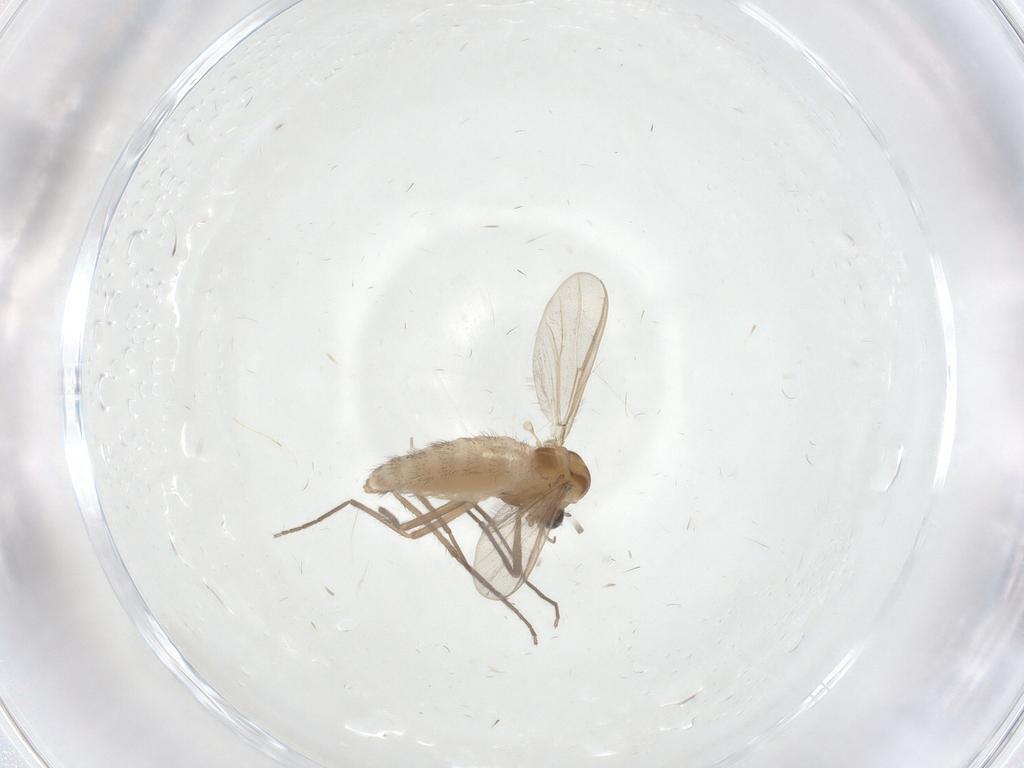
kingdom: Animalia
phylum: Arthropoda
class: Insecta
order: Diptera
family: Chironomidae
